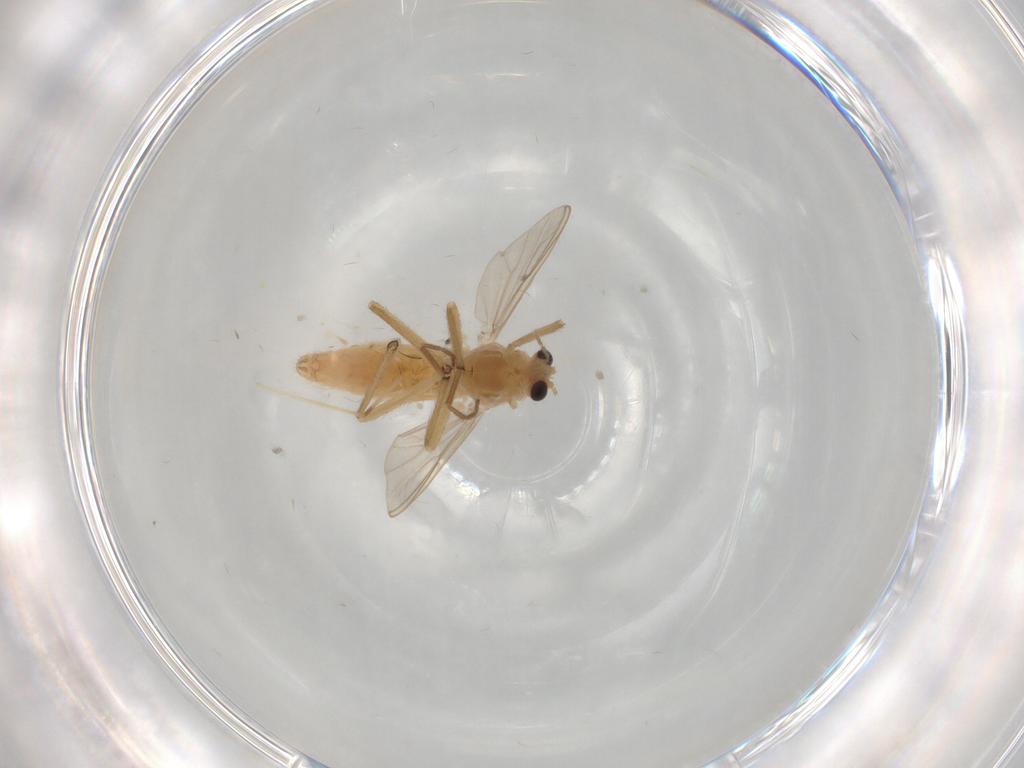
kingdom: Animalia
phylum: Arthropoda
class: Insecta
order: Diptera
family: Chironomidae
